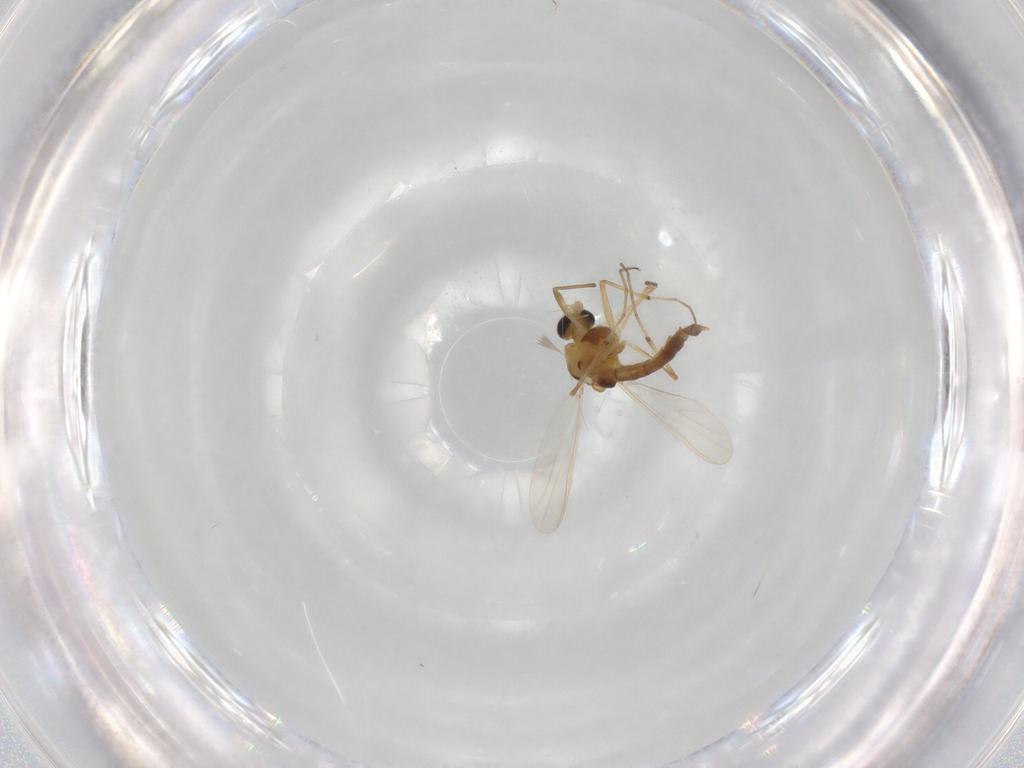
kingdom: Animalia
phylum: Arthropoda
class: Insecta
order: Diptera
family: Chironomidae
